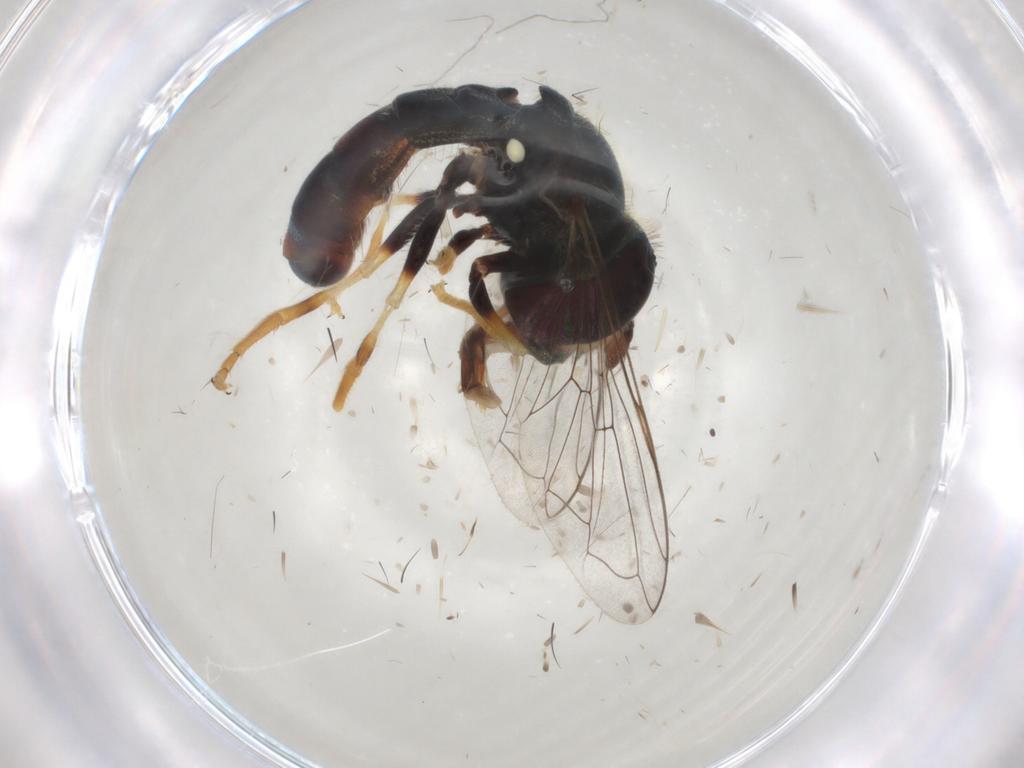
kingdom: Animalia
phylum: Arthropoda
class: Insecta
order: Diptera
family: Syrphidae
